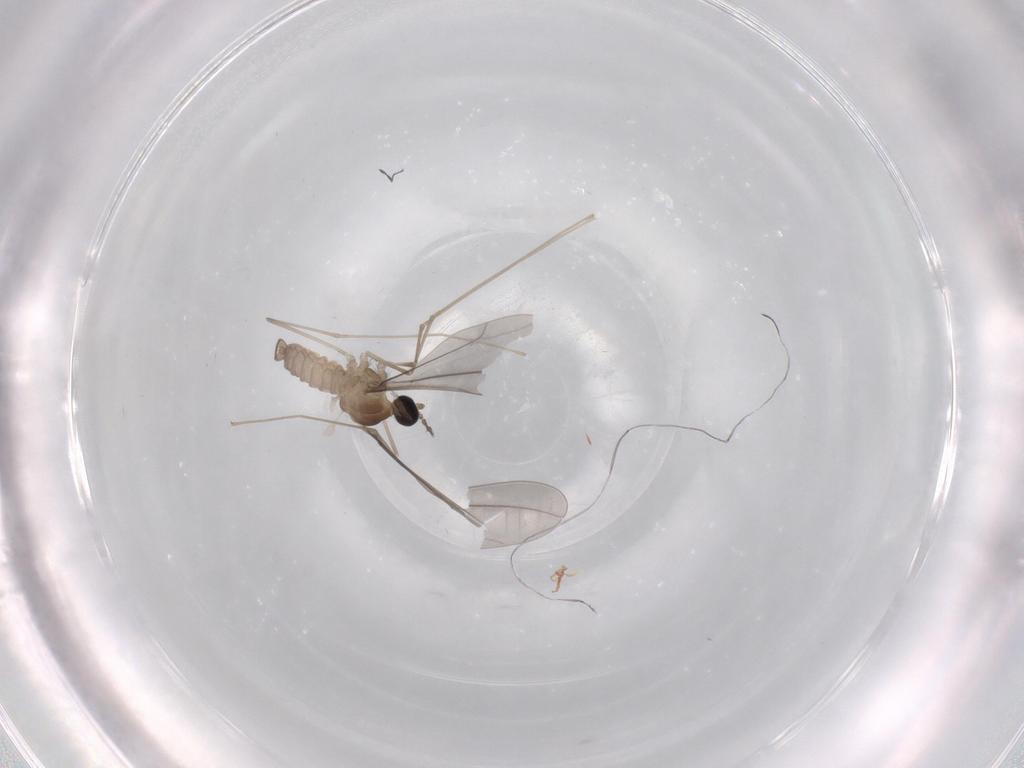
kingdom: Animalia
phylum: Arthropoda
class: Insecta
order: Diptera
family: Cecidomyiidae
